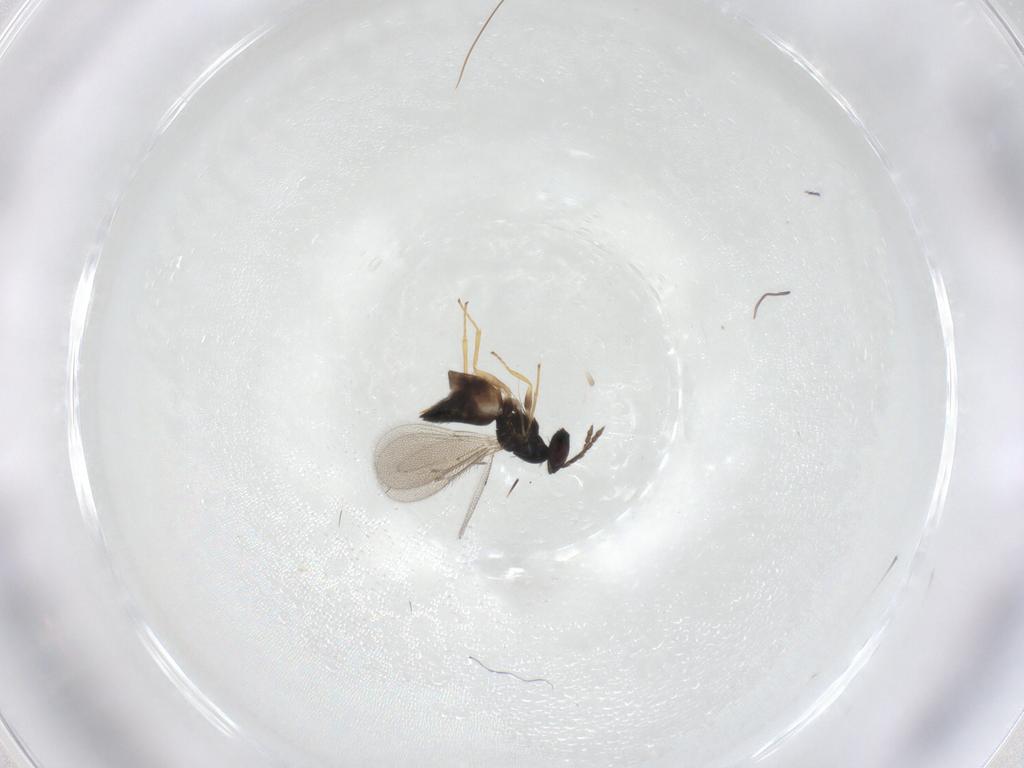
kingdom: Animalia
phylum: Arthropoda
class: Insecta
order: Hymenoptera
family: Eulophidae
